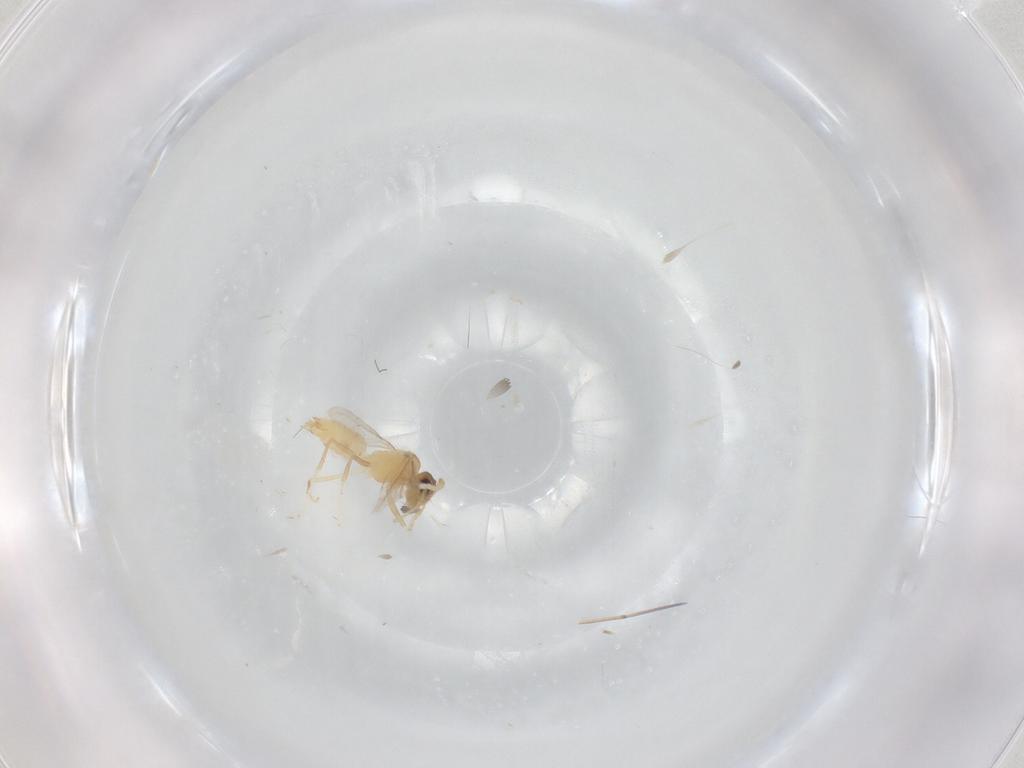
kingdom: Animalia
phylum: Arthropoda
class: Insecta
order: Hymenoptera
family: Formicidae
